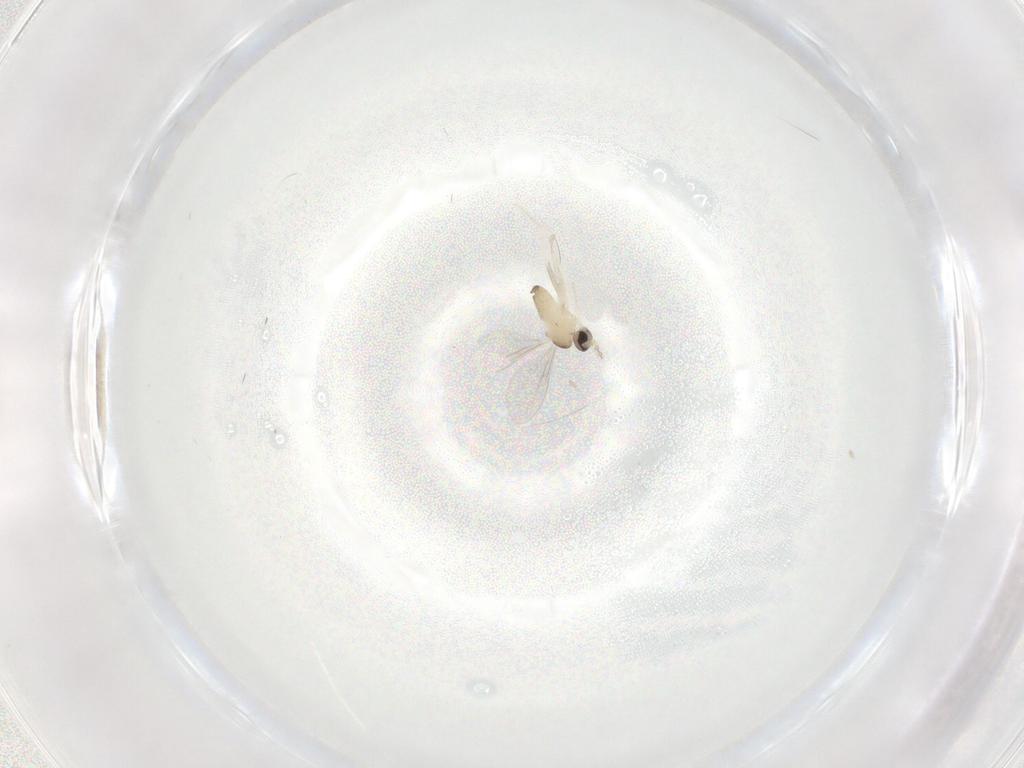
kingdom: Animalia
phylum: Arthropoda
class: Insecta
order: Diptera
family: Cecidomyiidae
